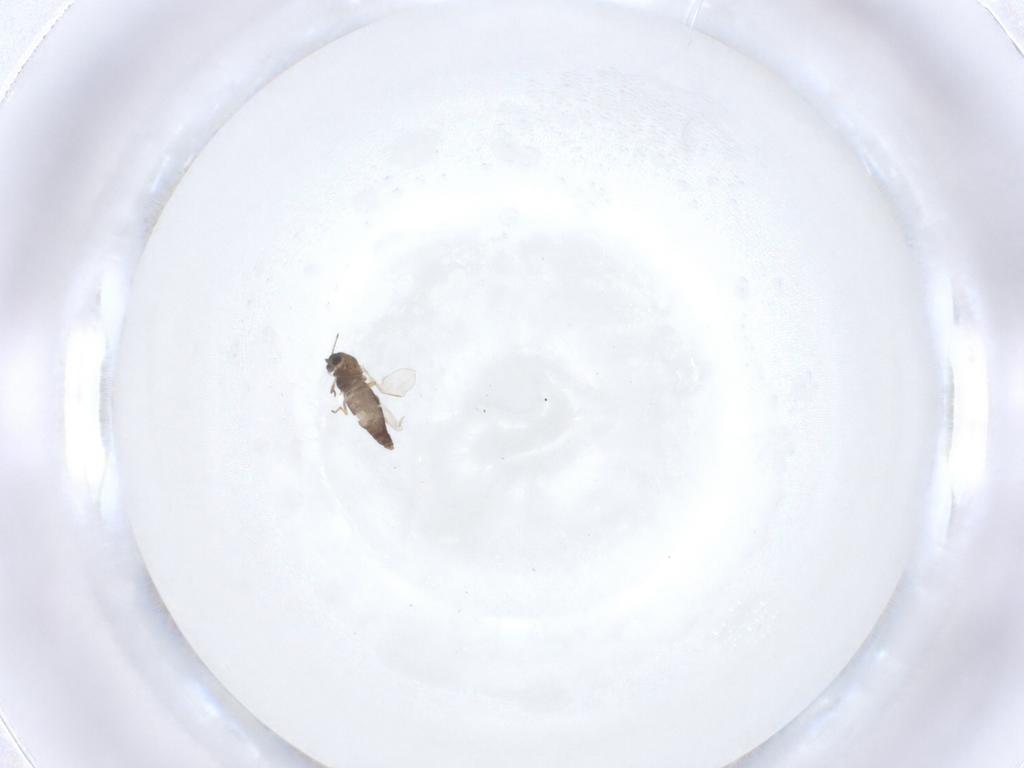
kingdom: Animalia
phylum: Arthropoda
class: Insecta
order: Diptera
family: Chironomidae
